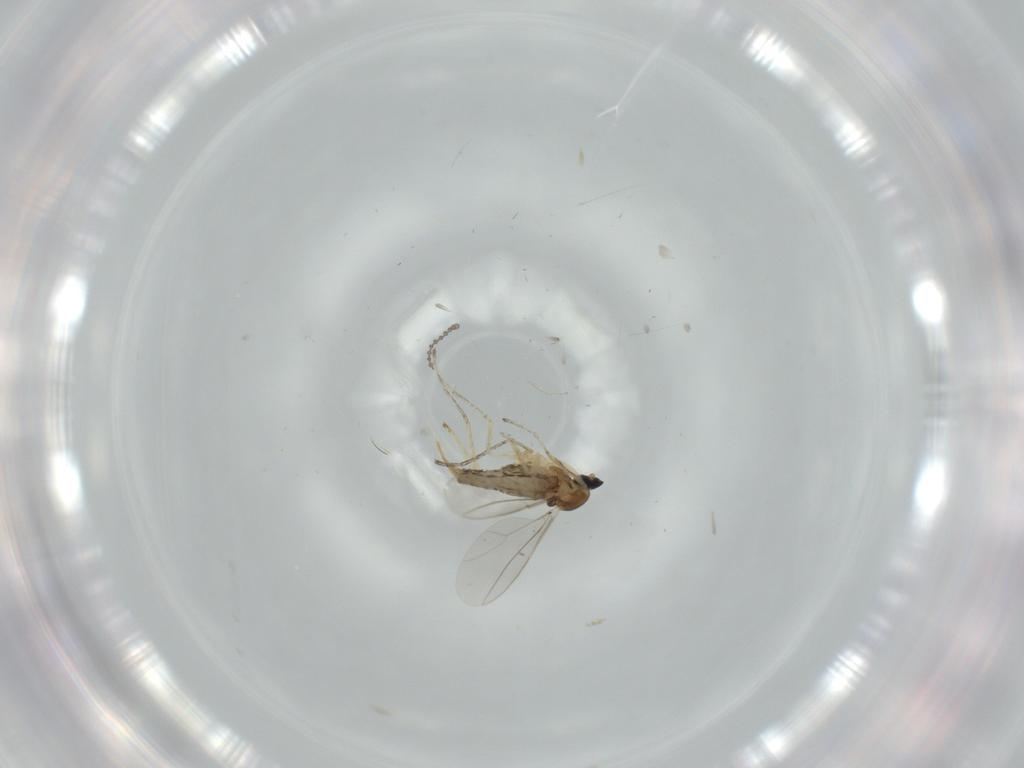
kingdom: Animalia
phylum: Arthropoda
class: Insecta
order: Diptera
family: Cecidomyiidae
